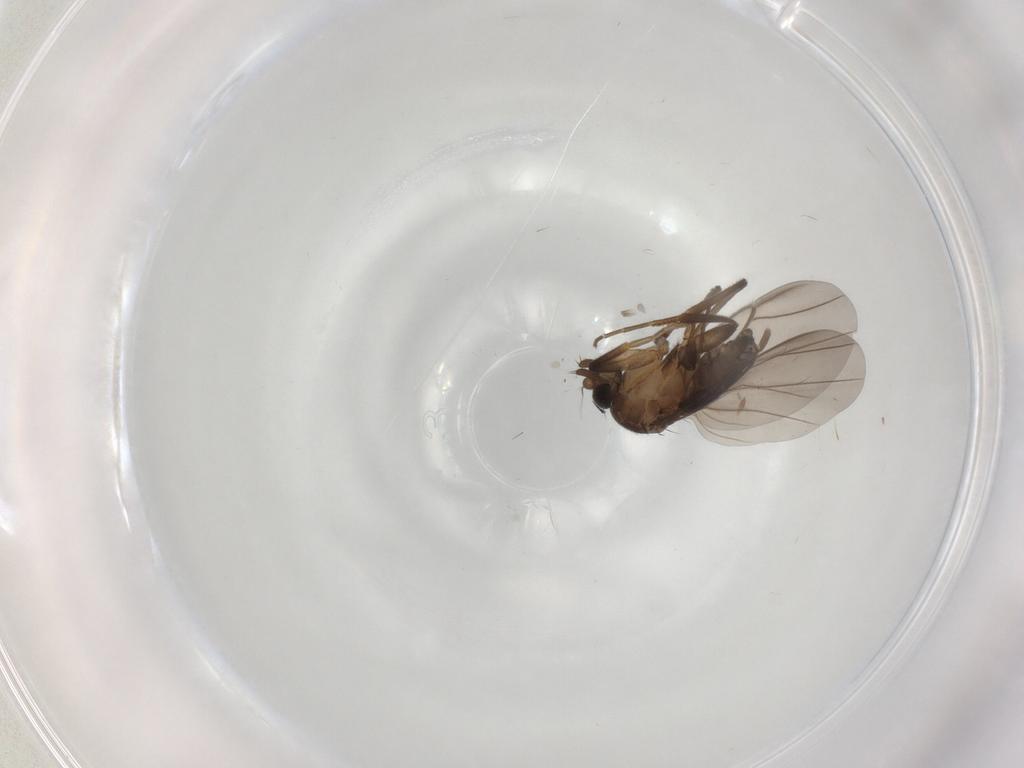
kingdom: Animalia
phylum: Arthropoda
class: Insecta
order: Diptera
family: Phoridae
